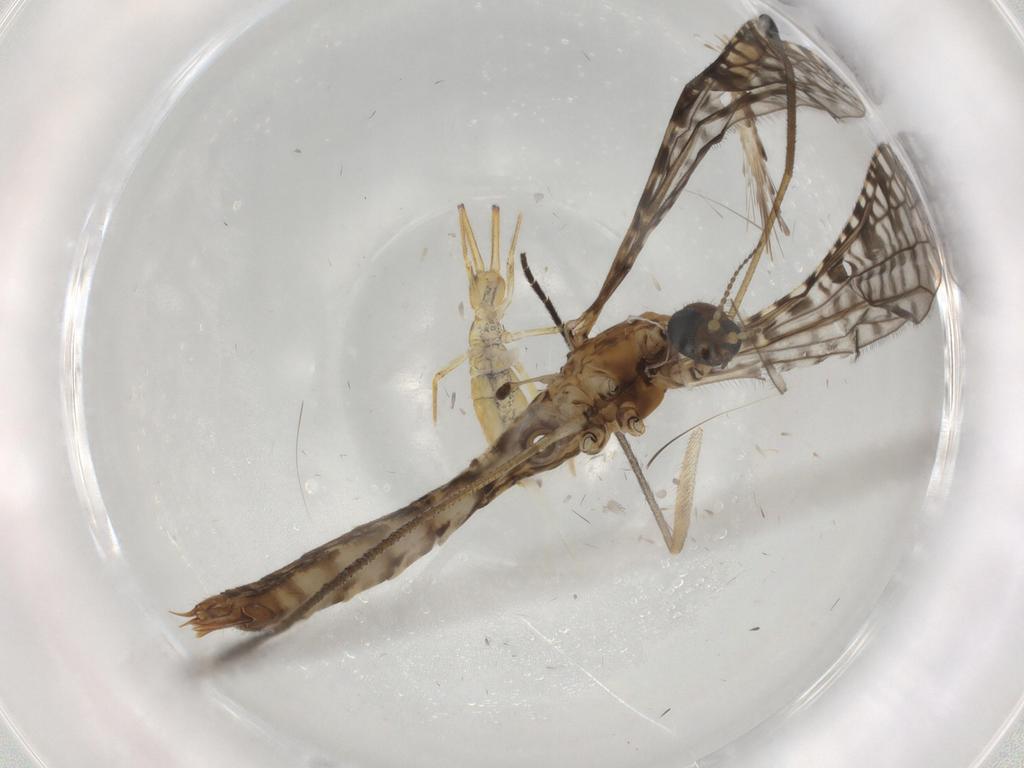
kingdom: Animalia
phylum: Arthropoda
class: Collembola
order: Entomobryomorpha
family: Entomobryidae
